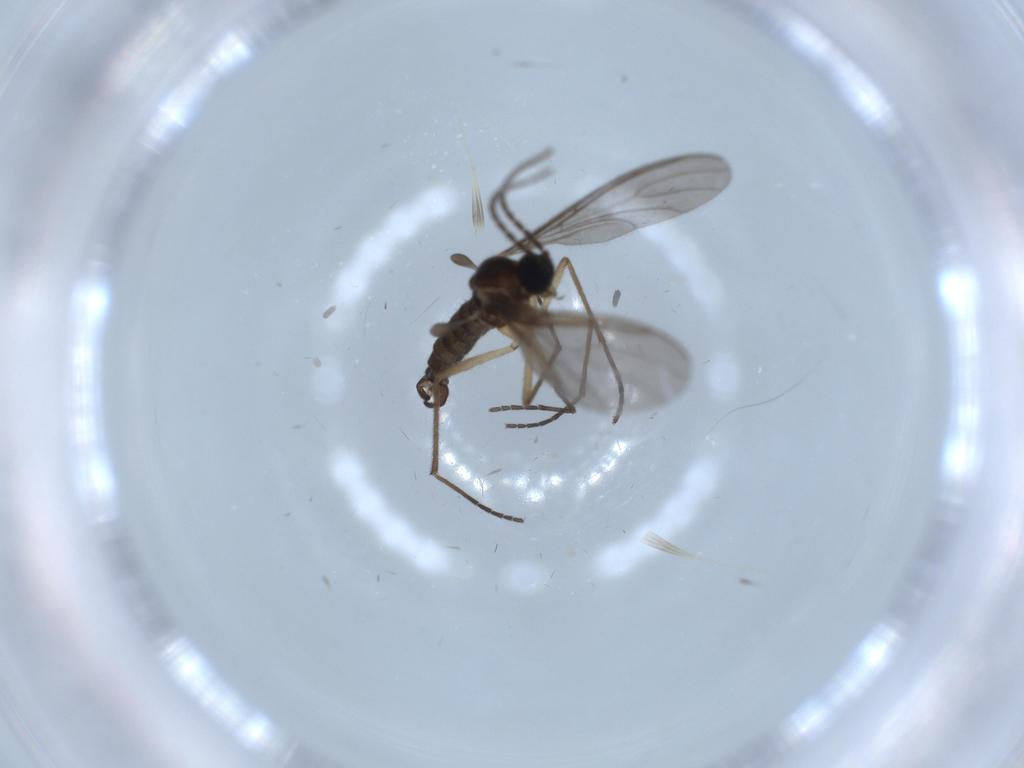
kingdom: Animalia
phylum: Arthropoda
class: Insecta
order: Diptera
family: Sciaridae
